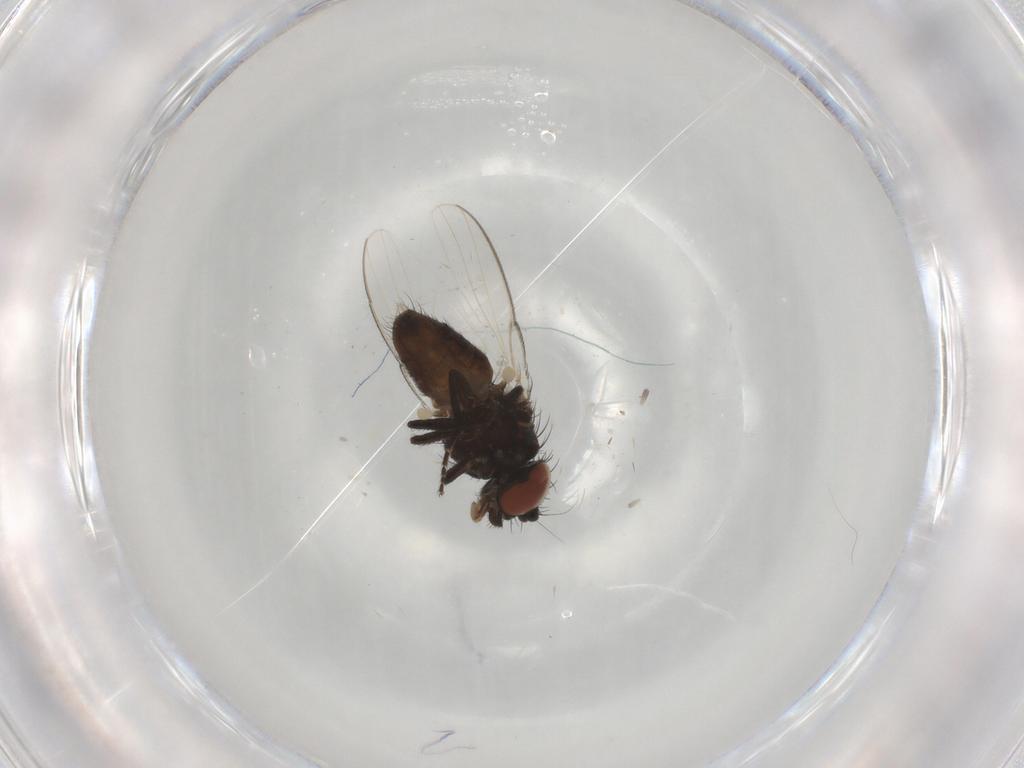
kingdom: Animalia
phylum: Arthropoda
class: Insecta
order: Diptera
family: Milichiidae
